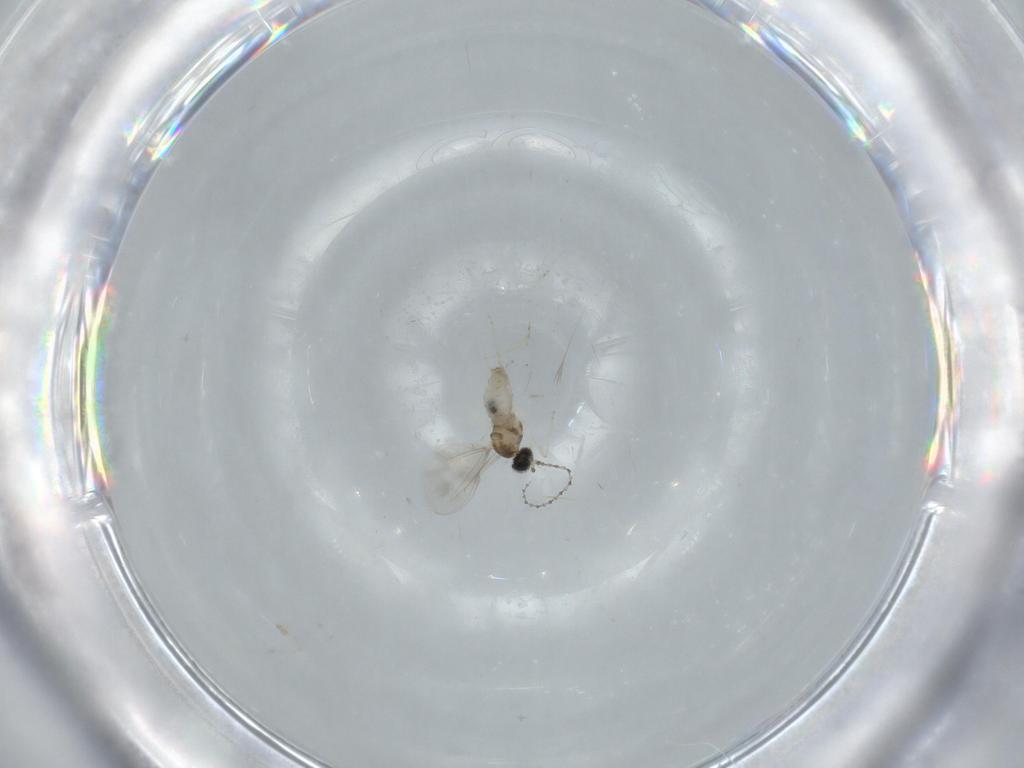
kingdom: Animalia
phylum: Arthropoda
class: Insecta
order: Diptera
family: Cecidomyiidae
